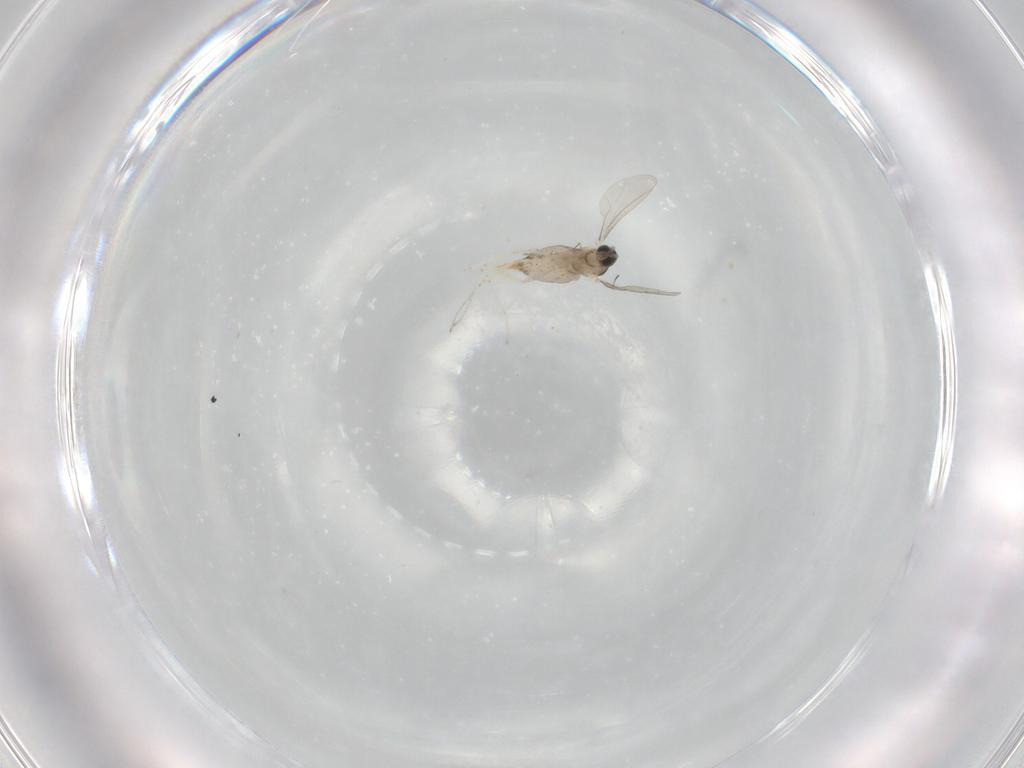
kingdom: Animalia
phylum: Arthropoda
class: Insecta
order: Diptera
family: Cecidomyiidae
